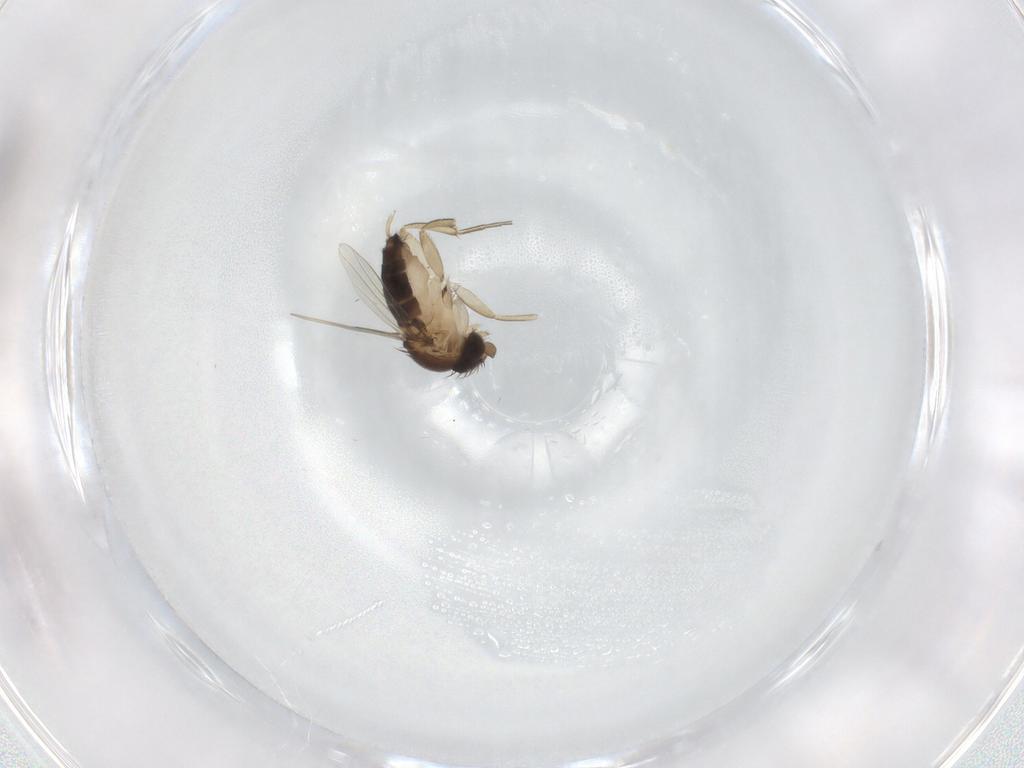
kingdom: Animalia
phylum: Arthropoda
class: Insecta
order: Diptera
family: Phoridae
